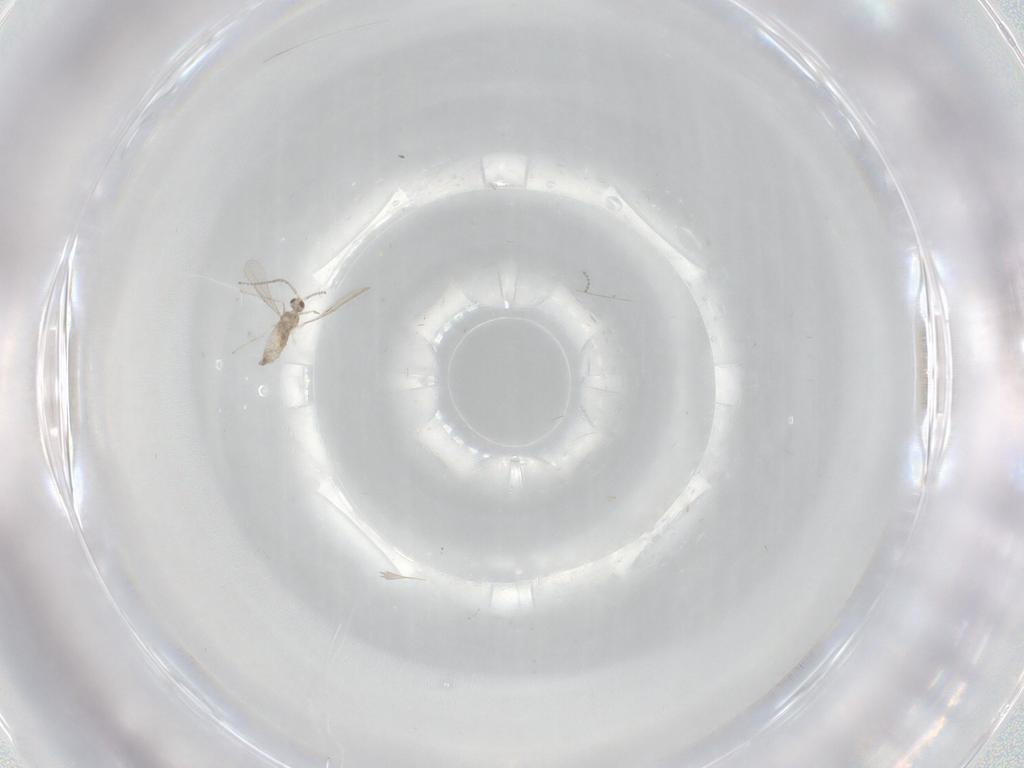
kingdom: Animalia
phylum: Arthropoda
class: Insecta
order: Diptera
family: Cecidomyiidae
